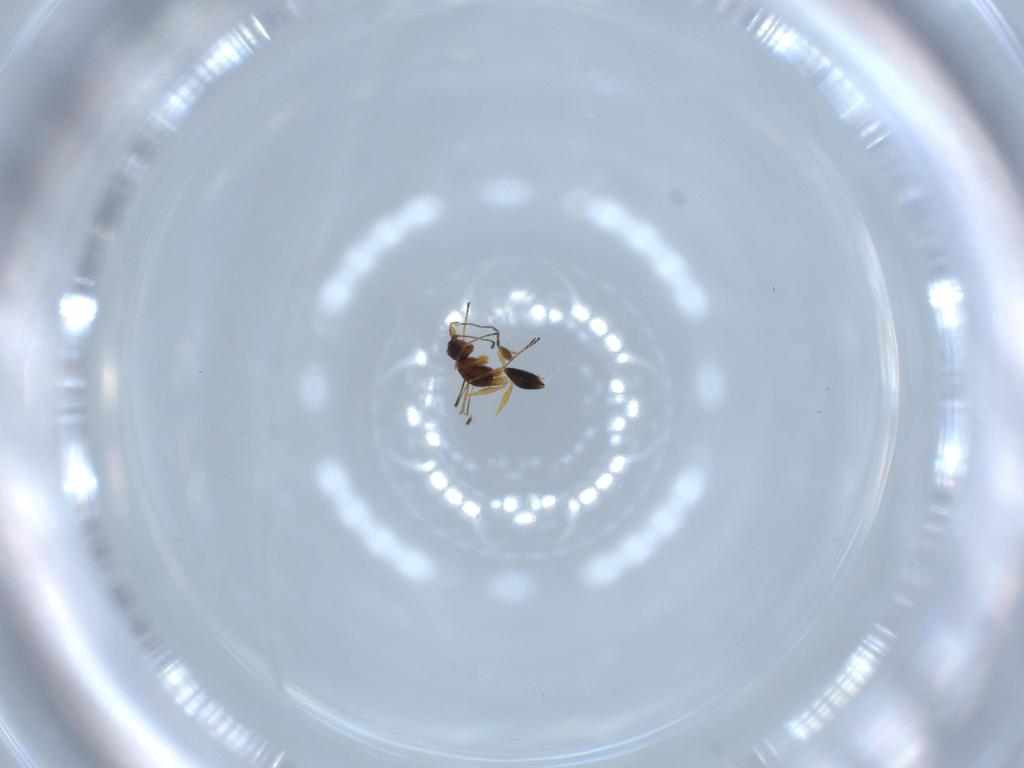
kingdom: Animalia
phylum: Arthropoda
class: Insecta
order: Hymenoptera
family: Mymaridae
